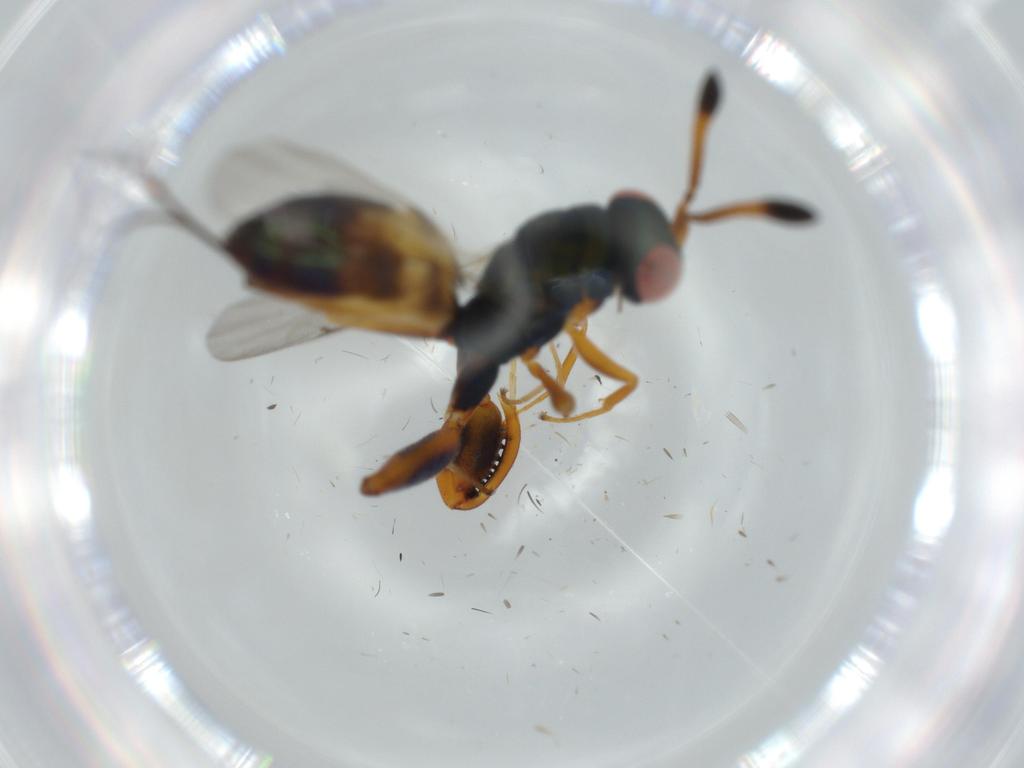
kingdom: Animalia
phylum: Arthropoda
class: Insecta
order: Hymenoptera
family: Torymidae
